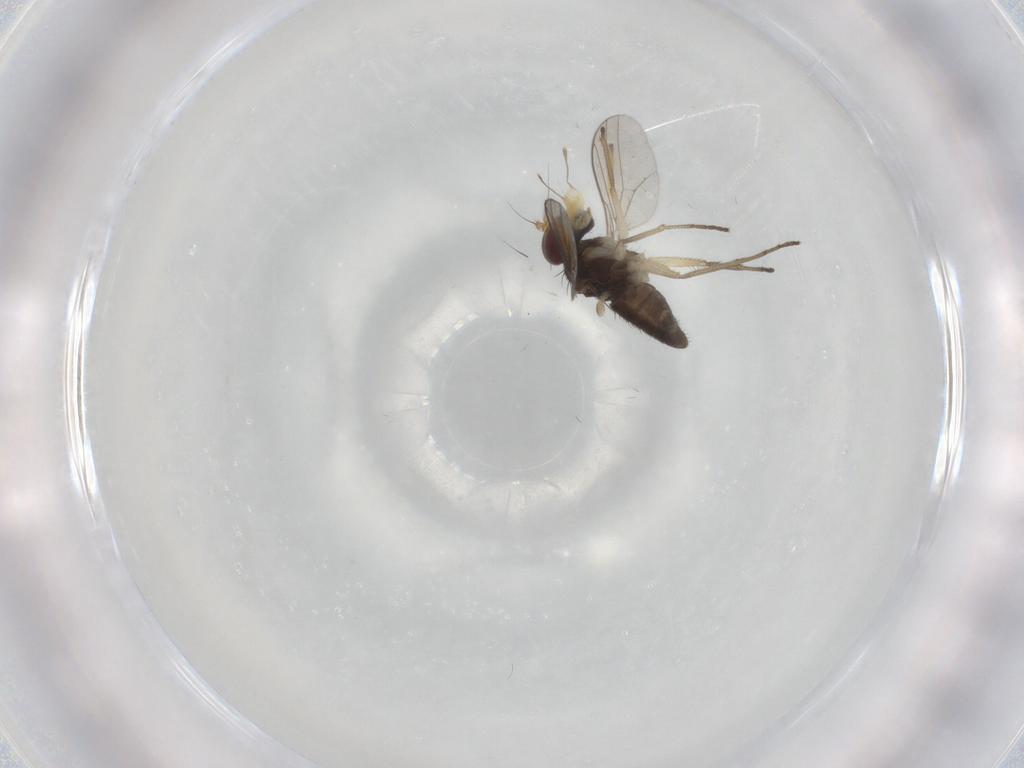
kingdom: Animalia
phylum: Arthropoda
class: Insecta
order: Diptera
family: Dolichopodidae
